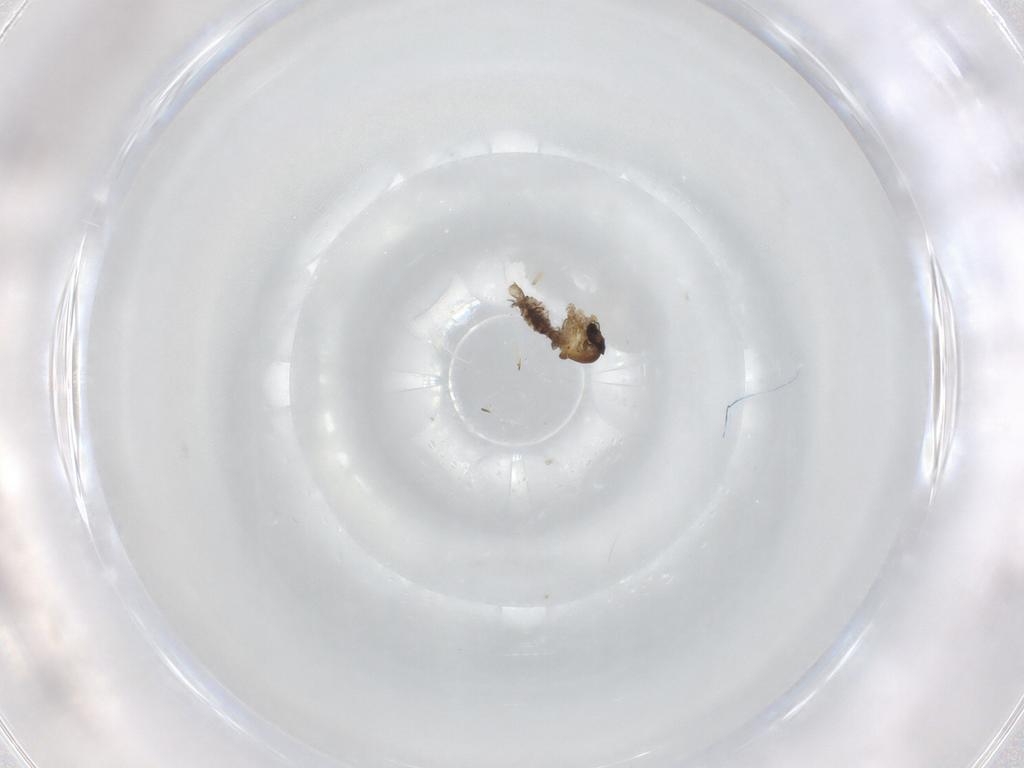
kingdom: Animalia
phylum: Arthropoda
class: Insecta
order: Diptera
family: Psychodidae
